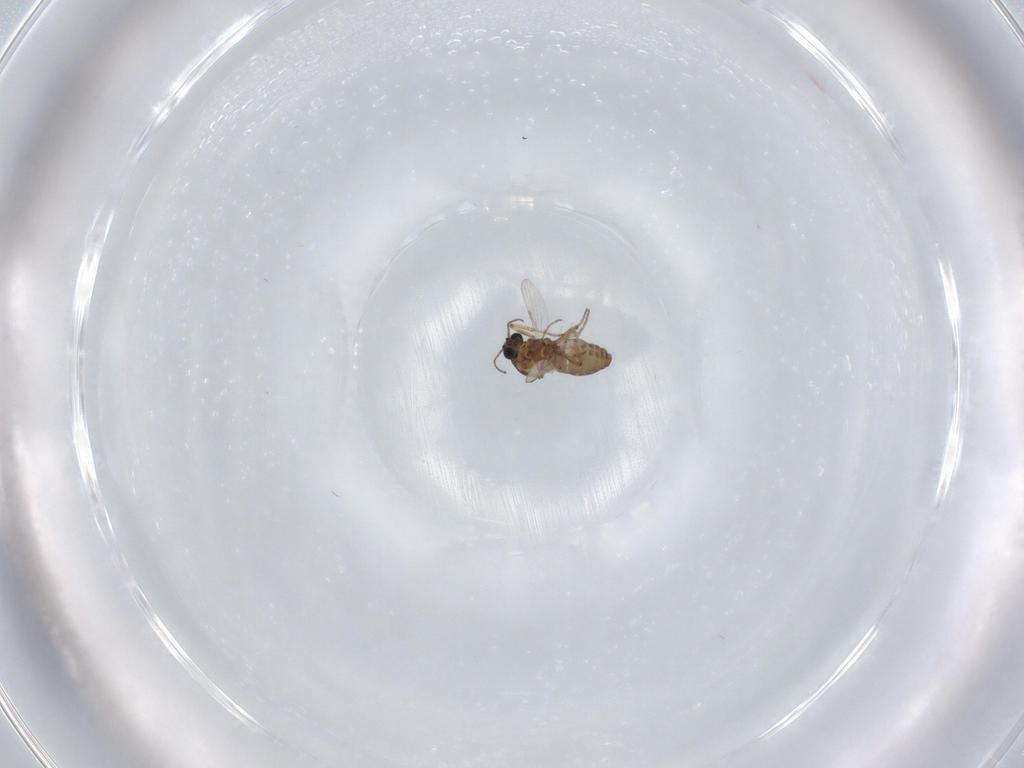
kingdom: Animalia
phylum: Arthropoda
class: Insecta
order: Diptera
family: Ceratopogonidae
